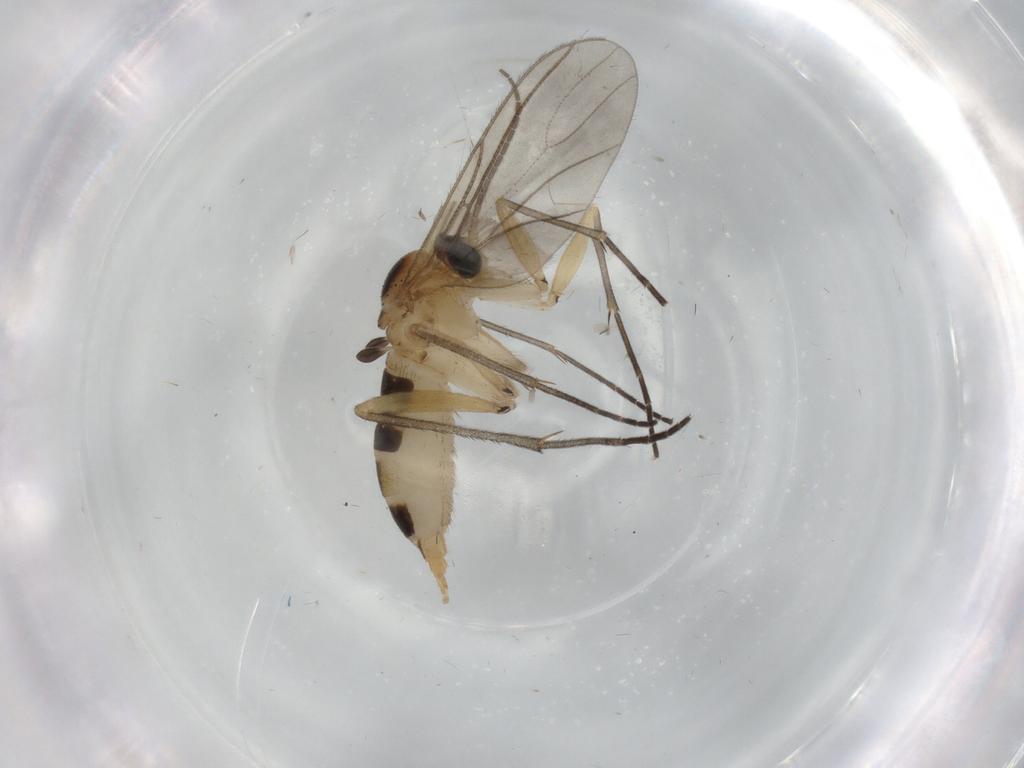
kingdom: Animalia
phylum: Arthropoda
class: Insecta
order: Diptera
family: Sciaridae
